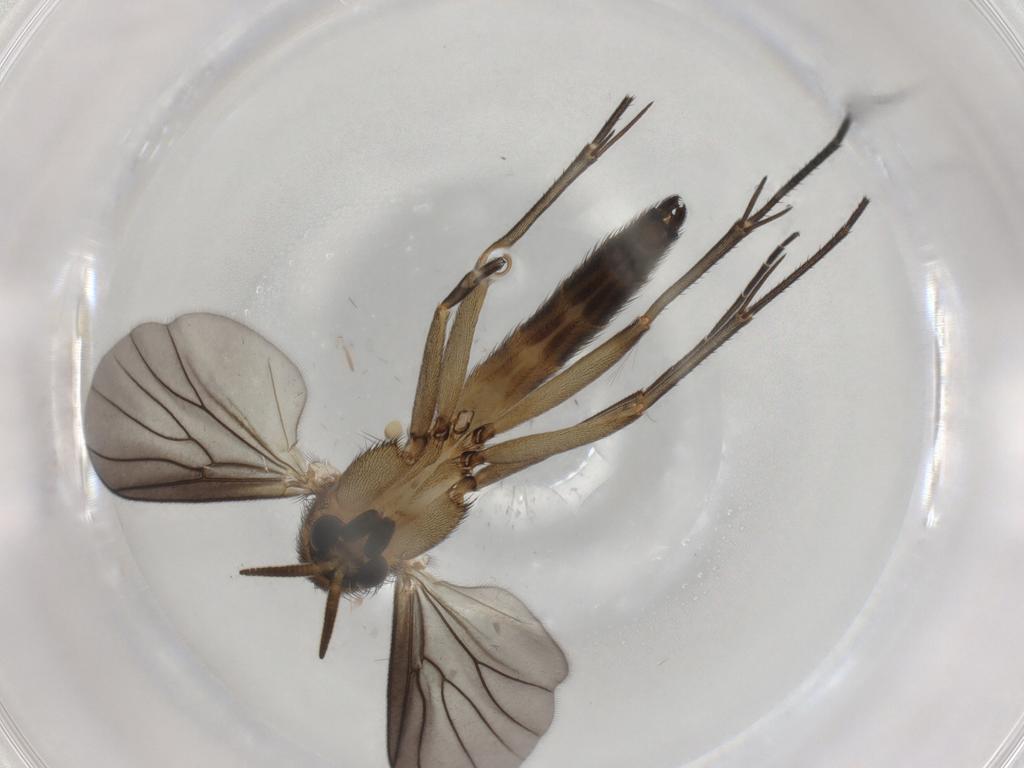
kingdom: Animalia
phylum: Arthropoda
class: Insecta
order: Diptera
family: Mycetophilidae
